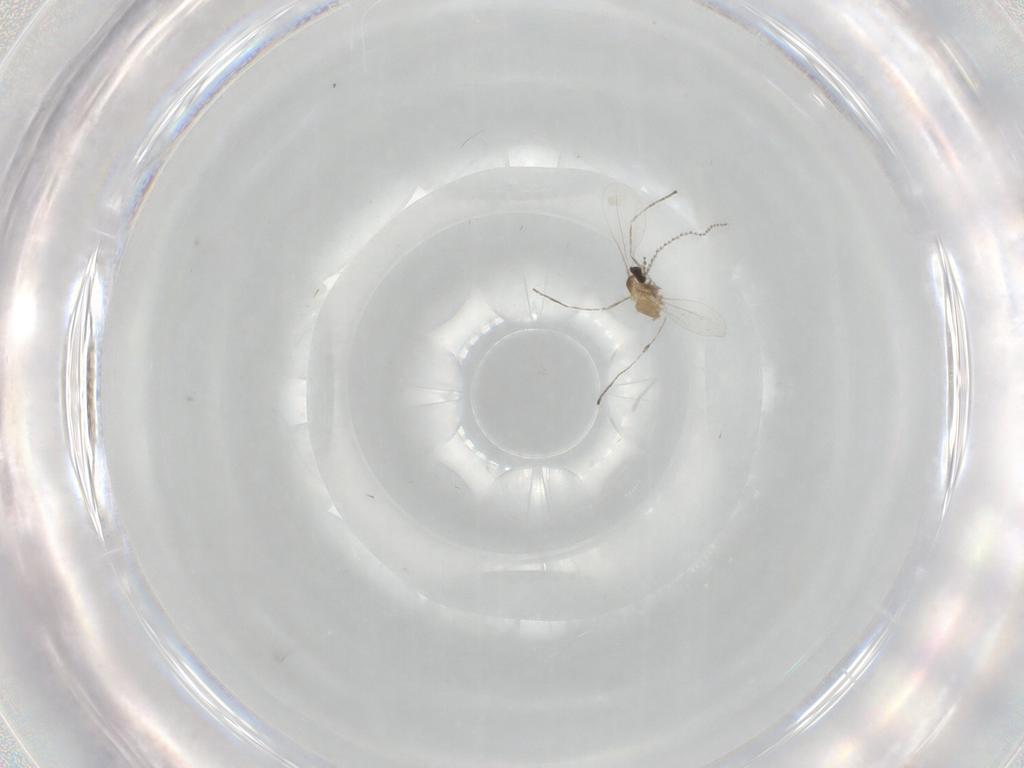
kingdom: Animalia
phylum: Arthropoda
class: Insecta
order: Diptera
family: Cecidomyiidae
